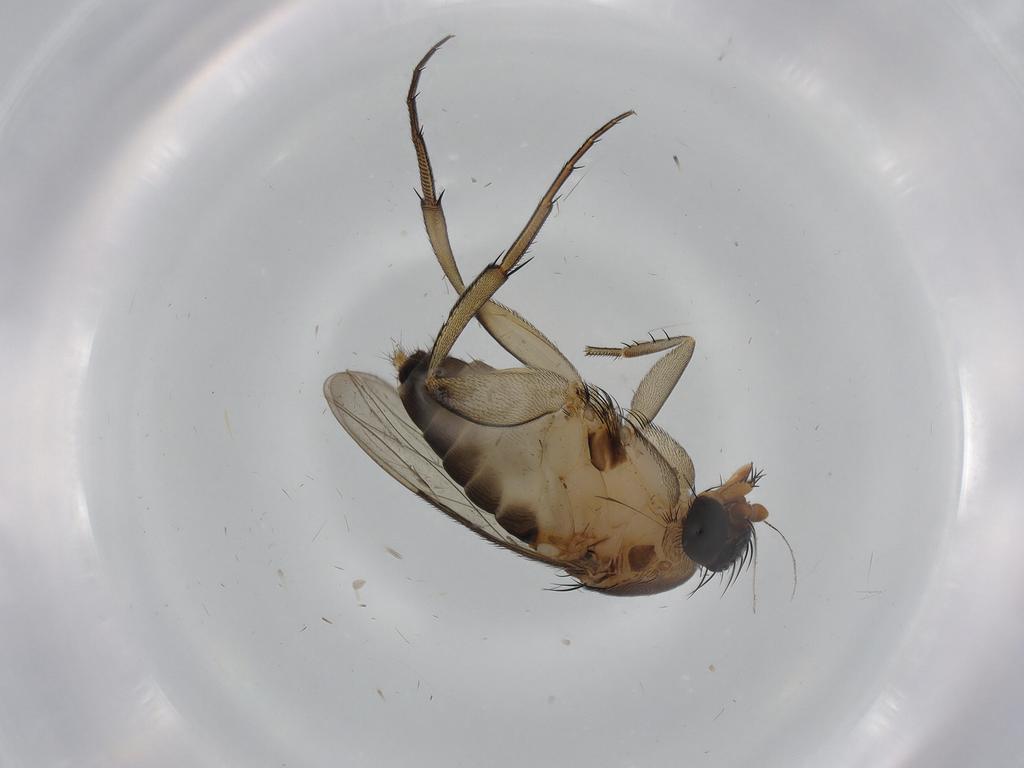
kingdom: Animalia
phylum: Arthropoda
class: Insecta
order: Diptera
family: Phoridae
